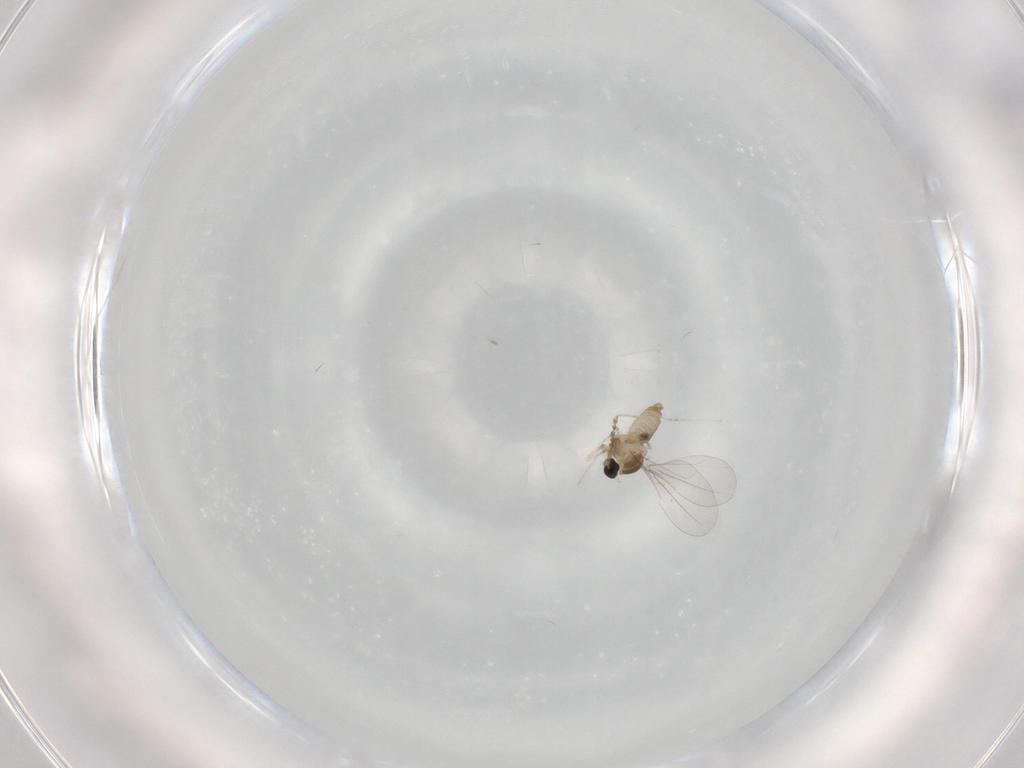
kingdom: Animalia
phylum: Arthropoda
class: Insecta
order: Diptera
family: Cecidomyiidae
